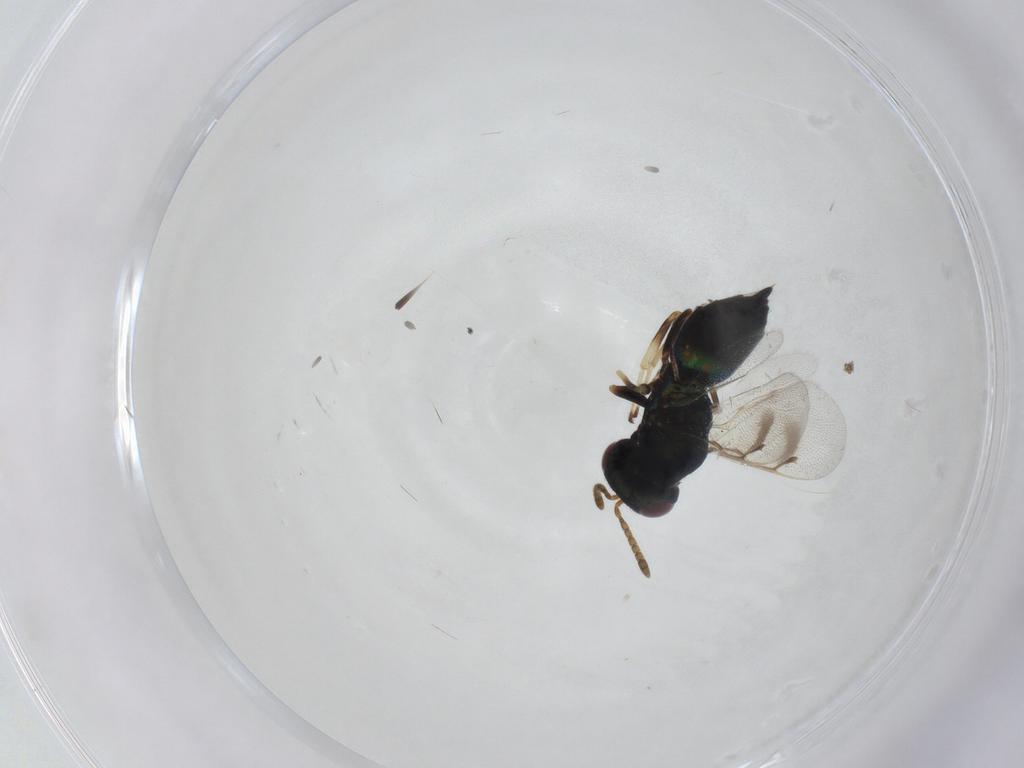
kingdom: Animalia
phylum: Arthropoda
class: Insecta
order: Hymenoptera
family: Pteromalidae
